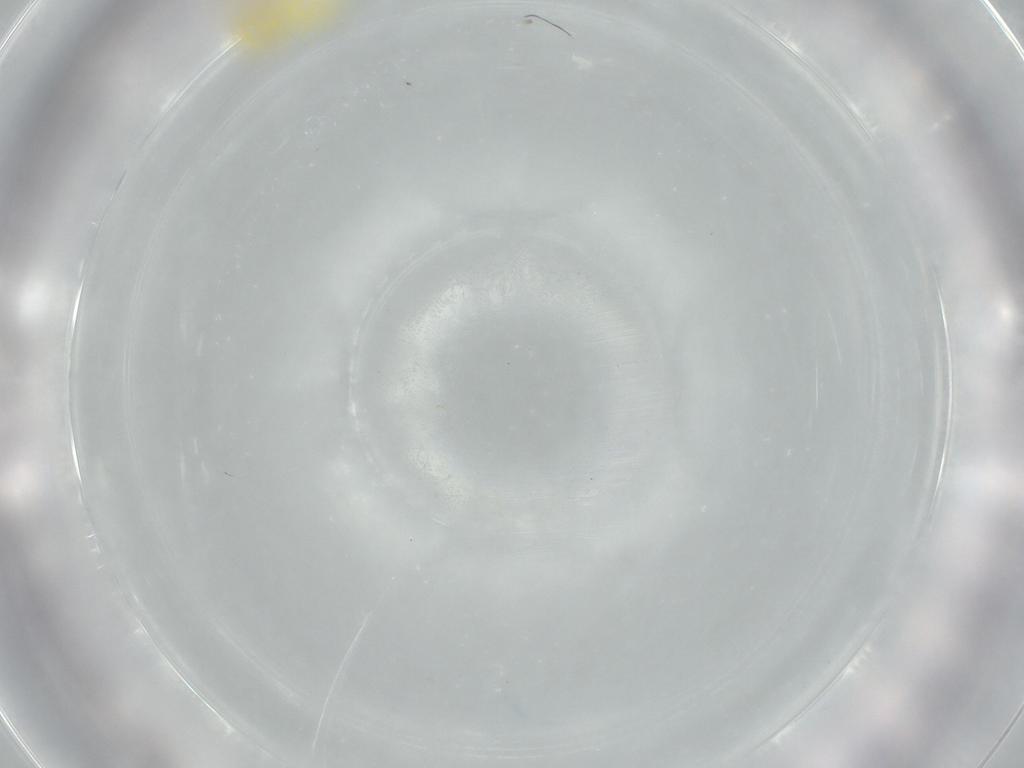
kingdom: Animalia
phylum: Arthropoda
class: Insecta
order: Hemiptera
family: Aleyrodidae
